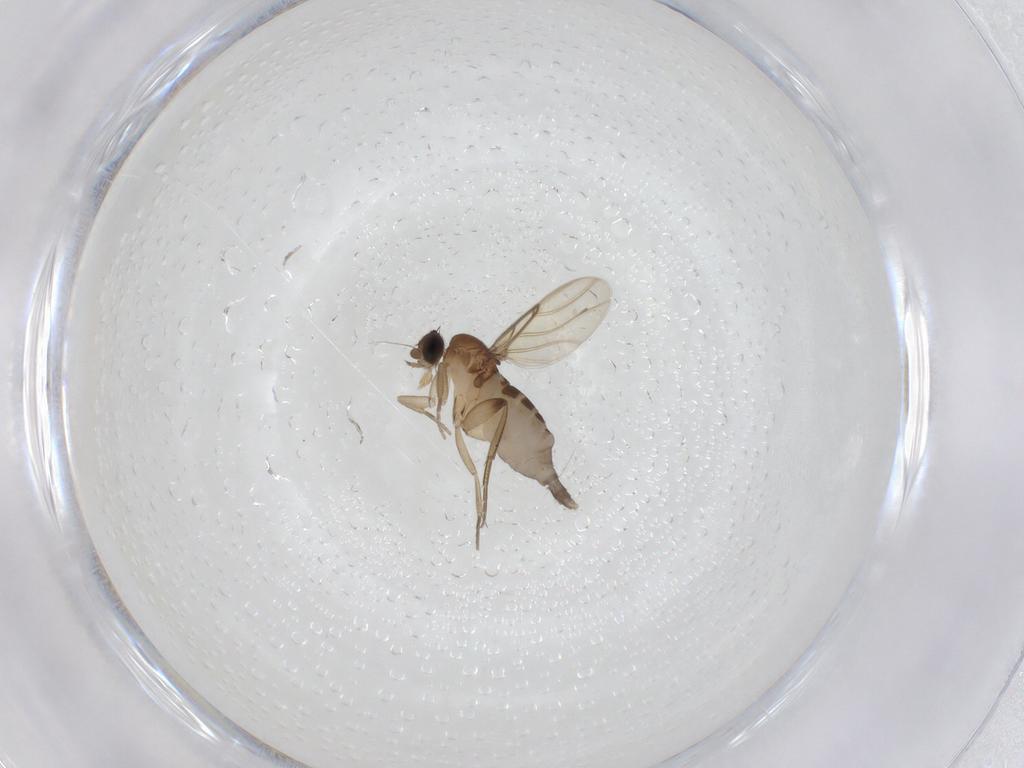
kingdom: Animalia
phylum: Arthropoda
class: Insecta
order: Diptera
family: Phoridae
